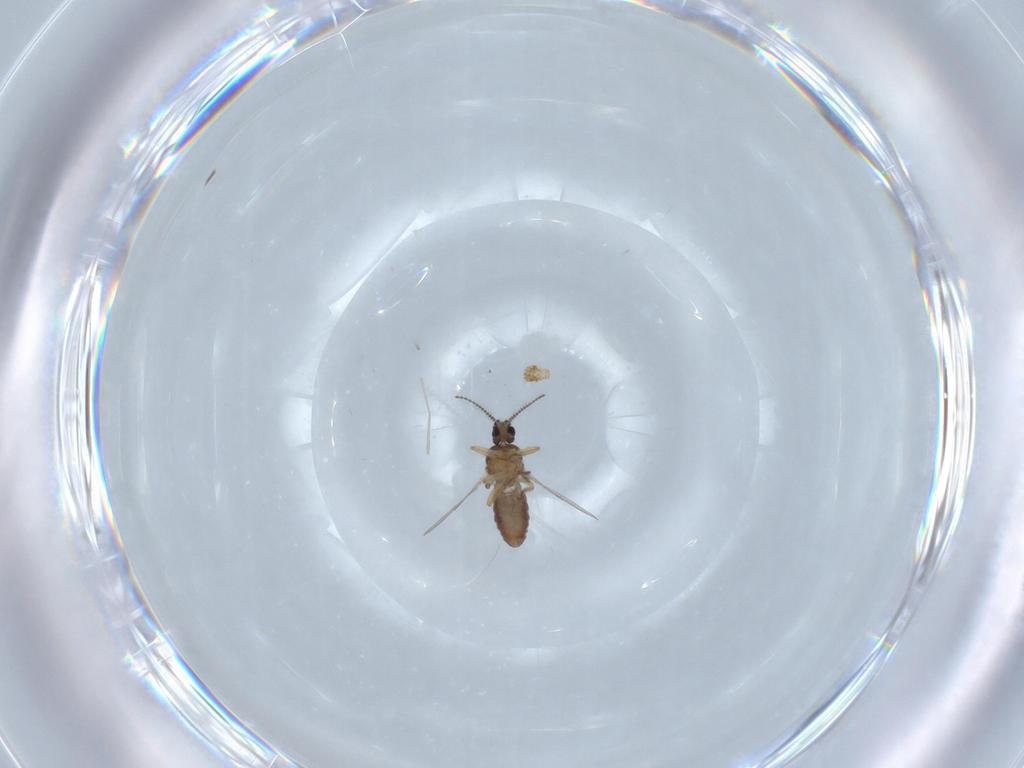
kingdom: Animalia
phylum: Arthropoda
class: Insecta
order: Diptera
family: Ceratopogonidae
